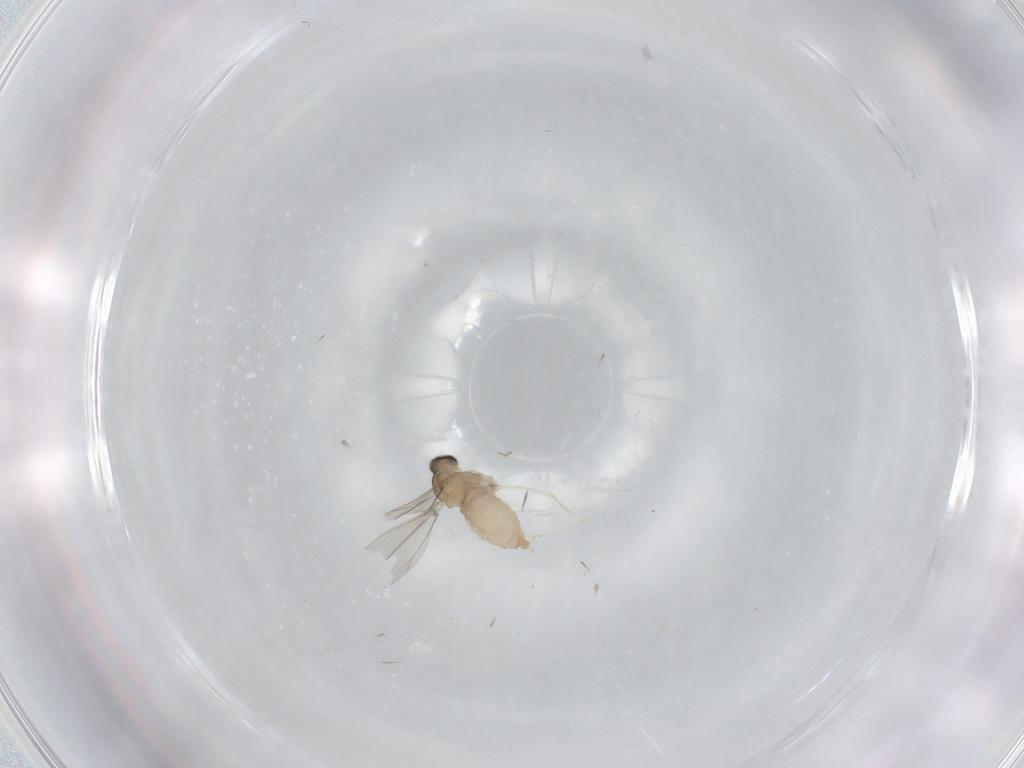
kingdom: Animalia
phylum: Arthropoda
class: Insecta
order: Diptera
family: Cecidomyiidae
